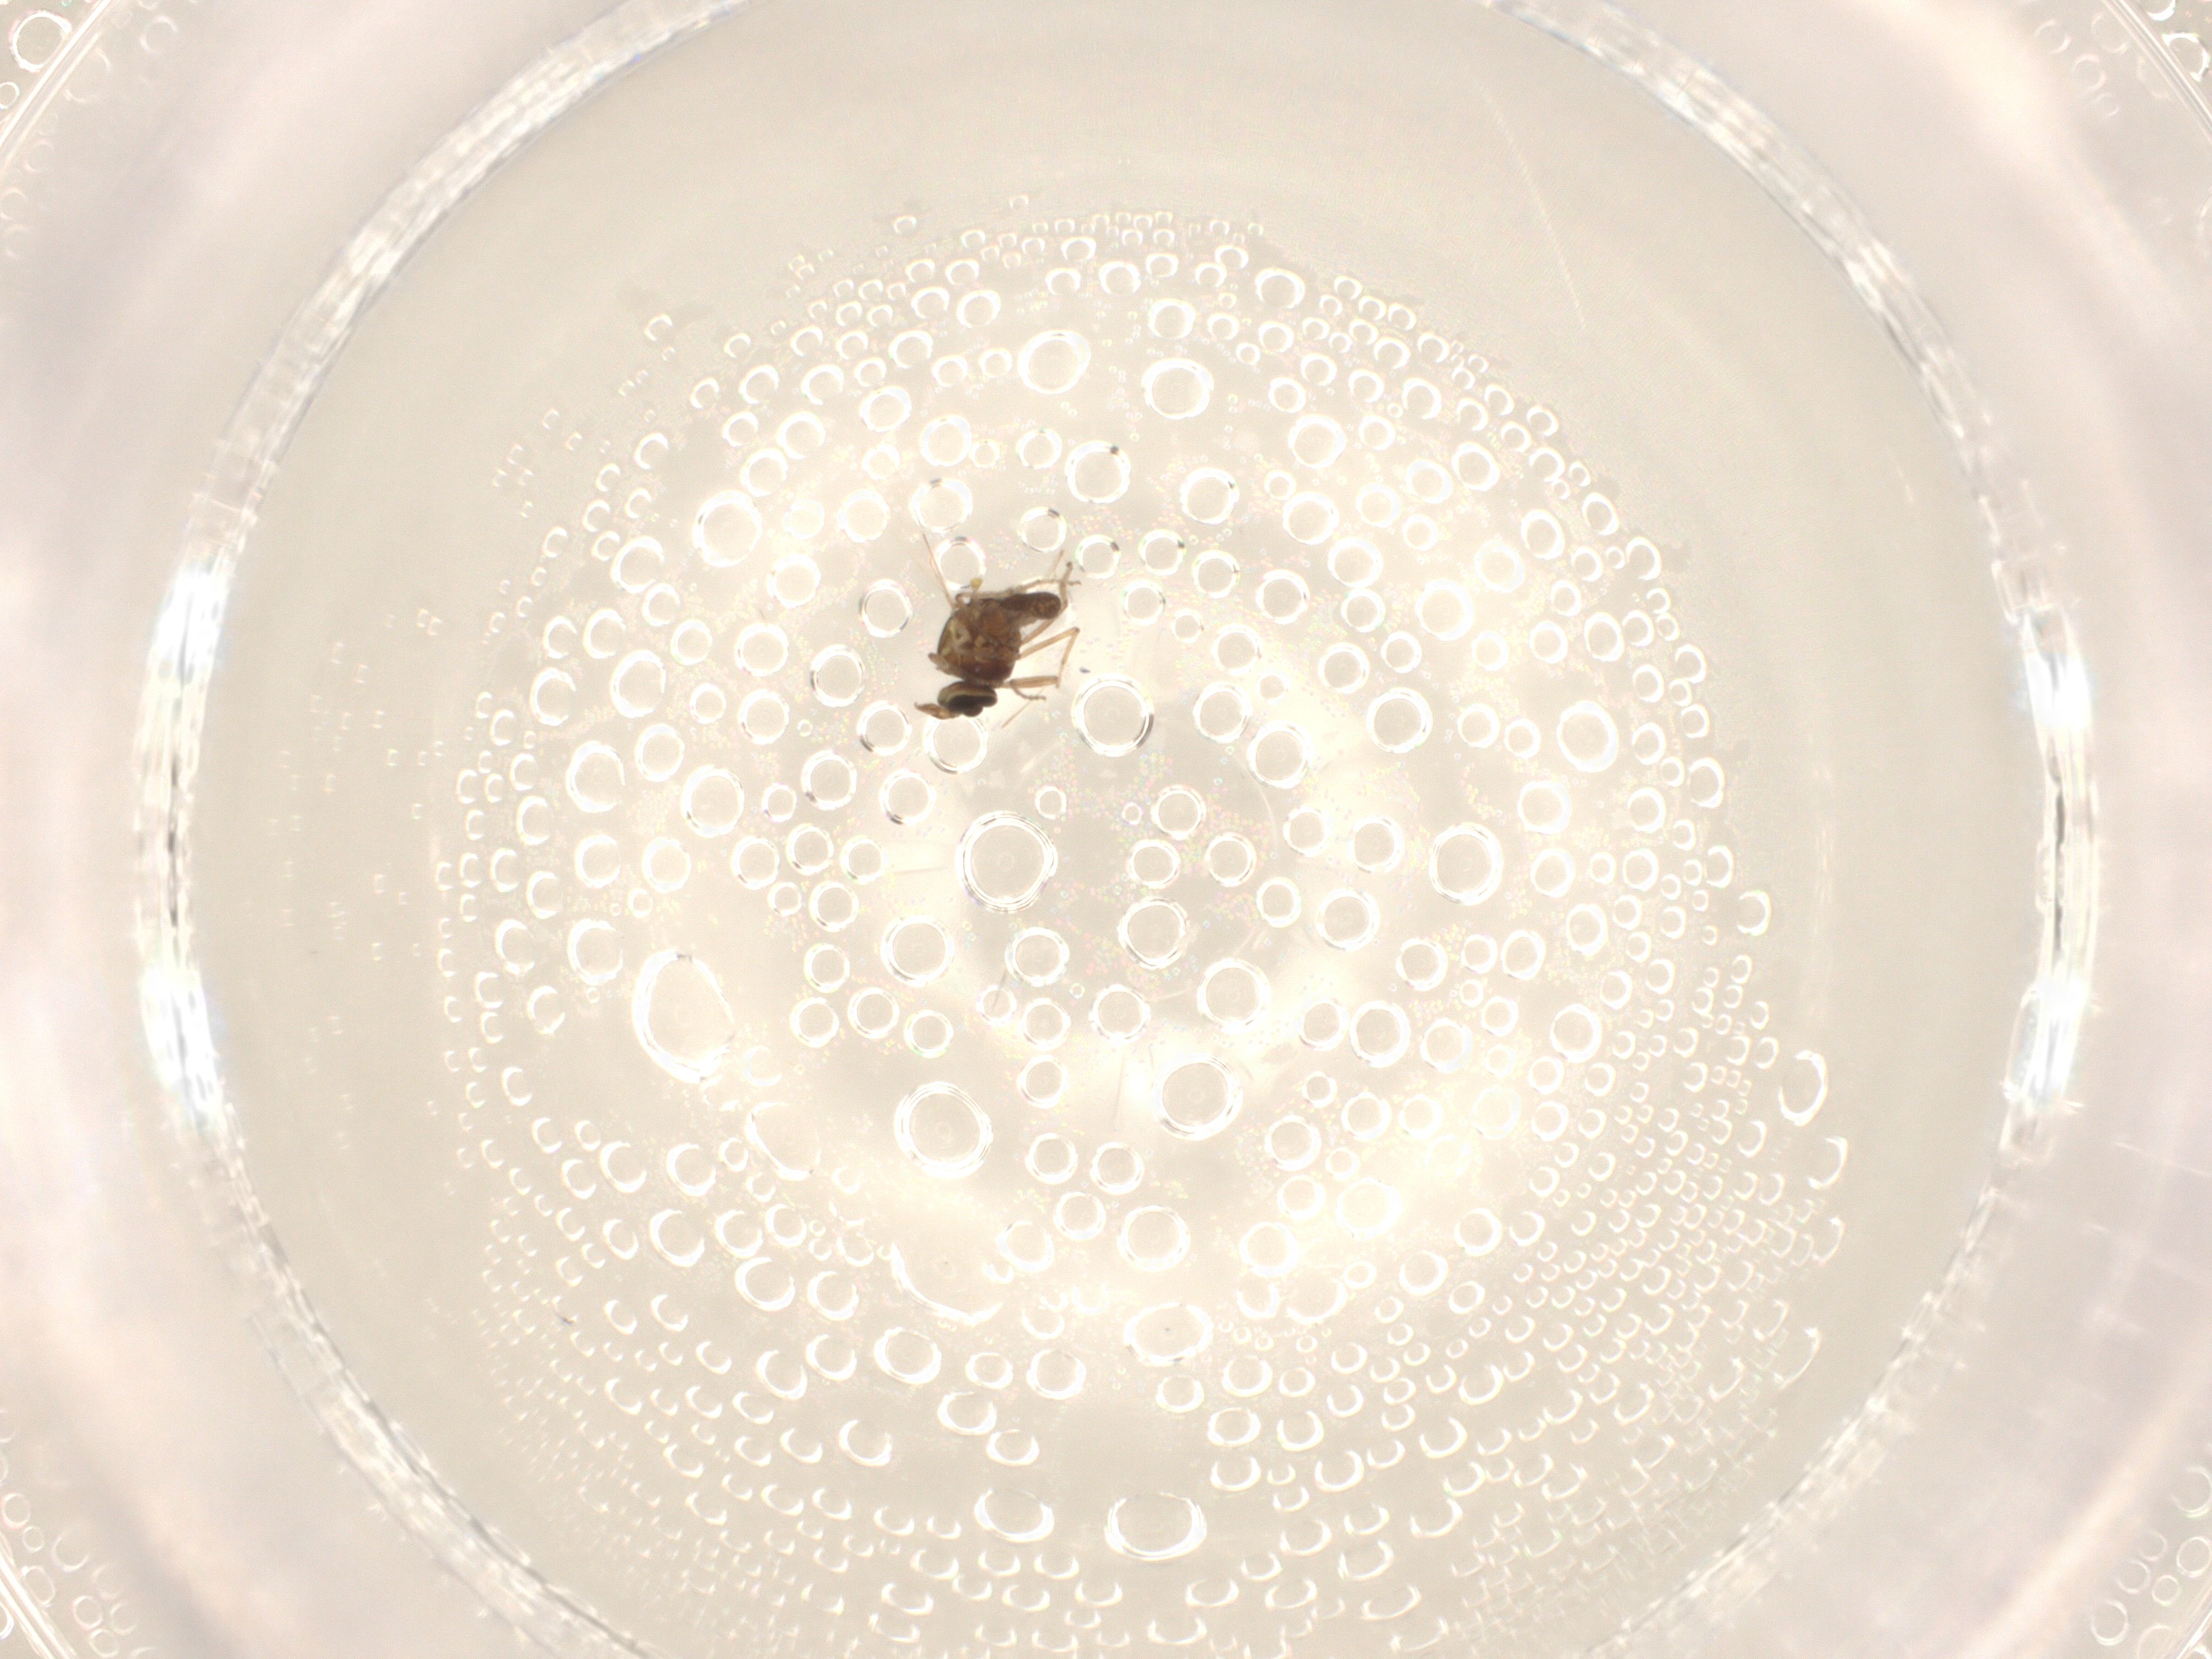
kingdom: Animalia
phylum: Arthropoda
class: Insecta
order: Diptera
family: Ceratopogonidae
